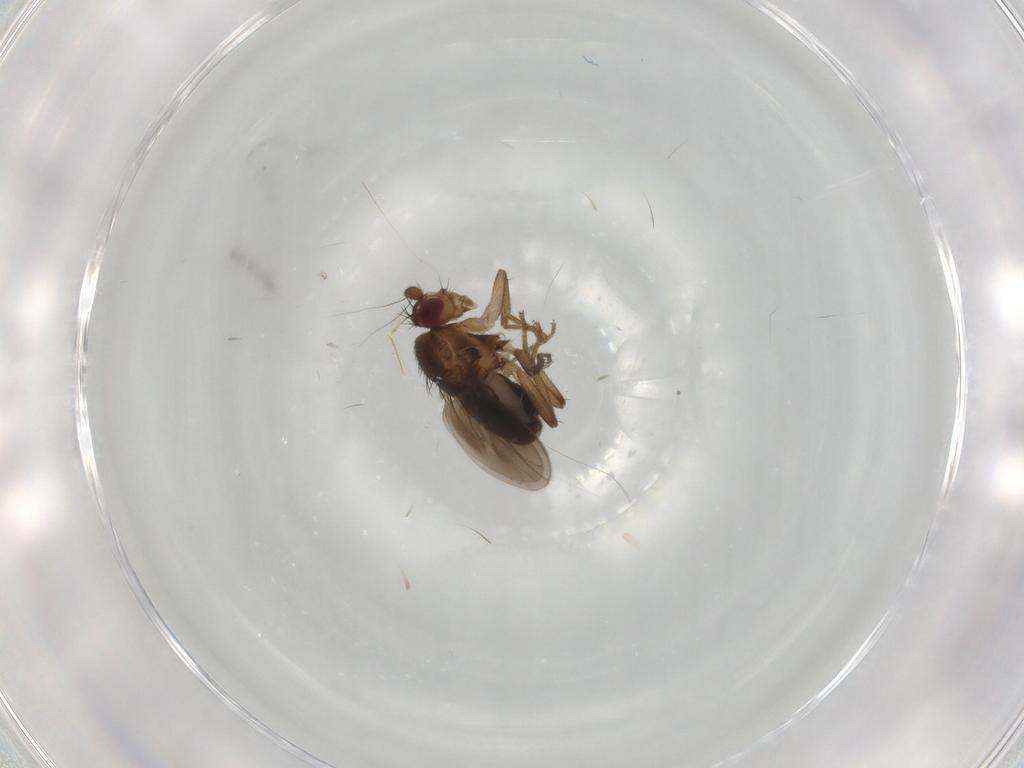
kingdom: Animalia
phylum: Arthropoda
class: Insecta
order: Diptera
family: Sphaeroceridae
